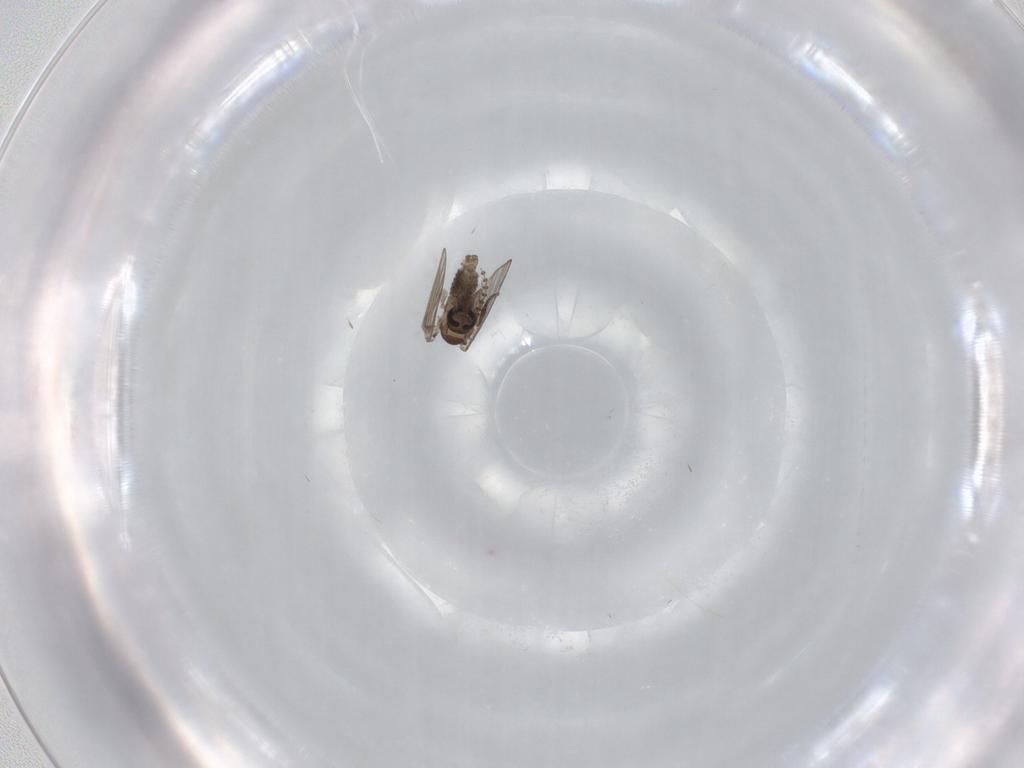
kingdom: Animalia
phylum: Arthropoda
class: Insecta
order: Diptera
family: Psychodidae
